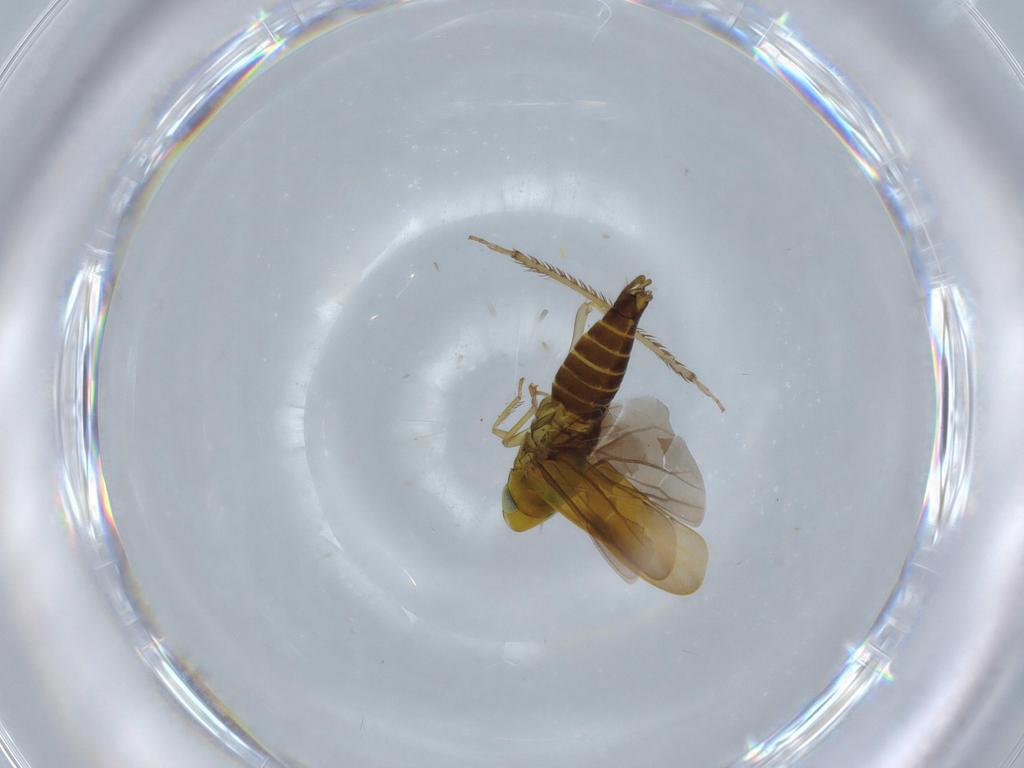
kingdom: Animalia
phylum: Arthropoda
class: Insecta
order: Hemiptera
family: Cicadellidae
